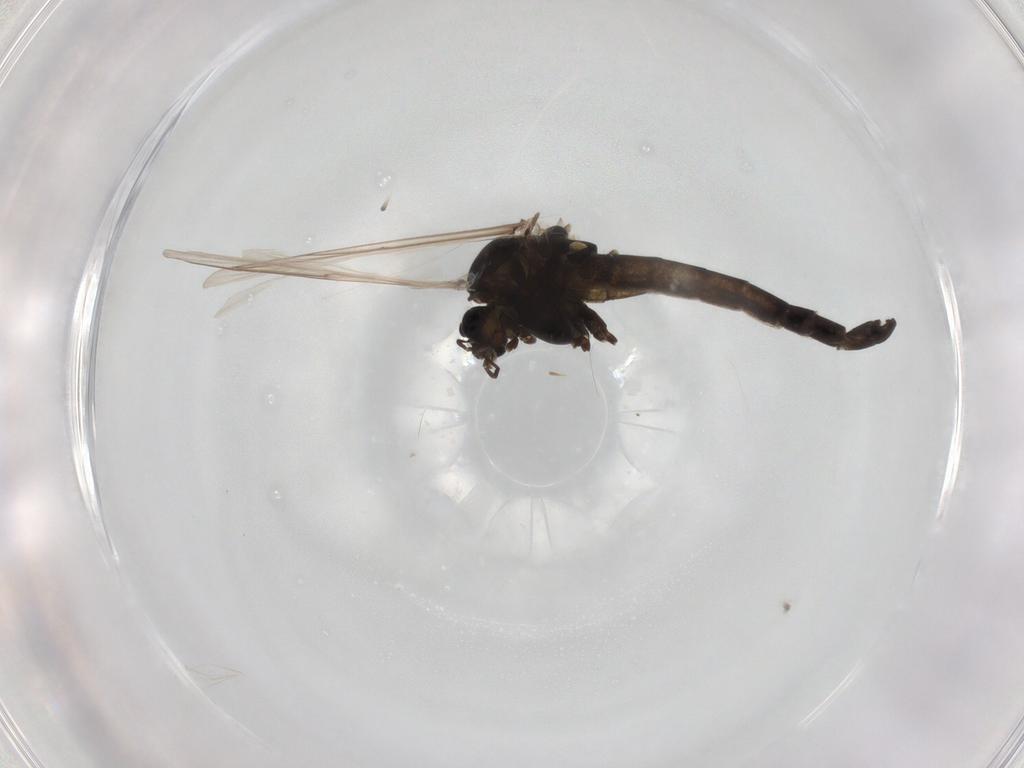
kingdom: Animalia
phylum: Arthropoda
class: Insecta
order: Diptera
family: Chironomidae
